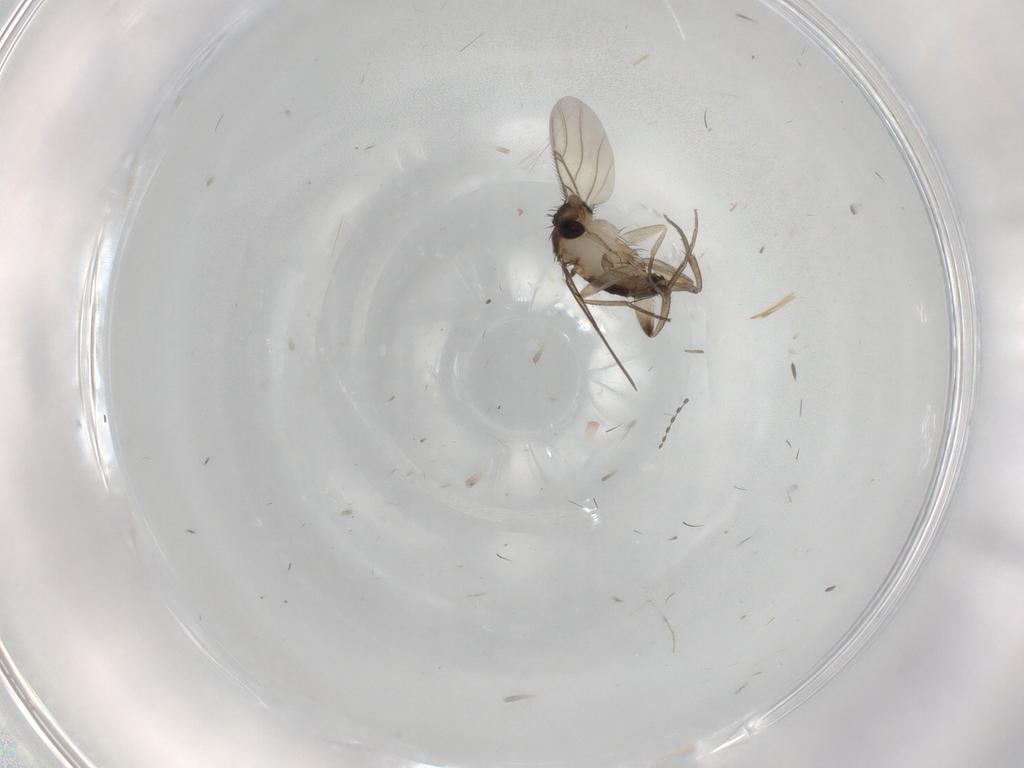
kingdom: Animalia
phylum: Arthropoda
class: Insecta
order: Diptera
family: Phoridae
